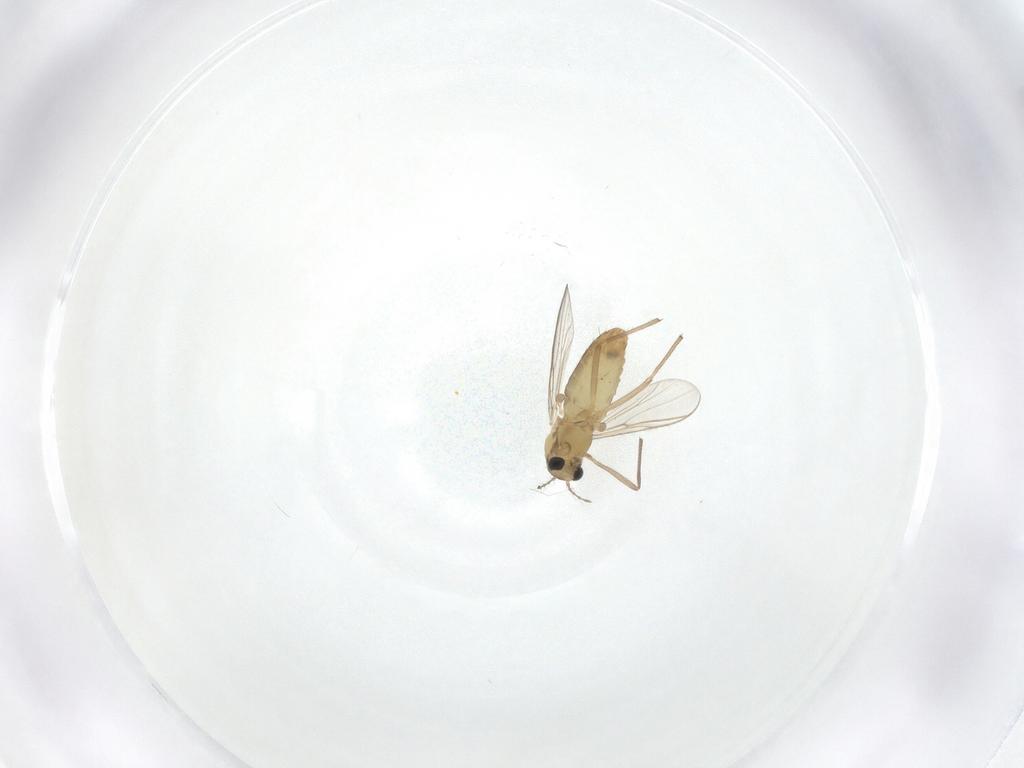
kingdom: Animalia
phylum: Arthropoda
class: Insecta
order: Diptera
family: Chironomidae
